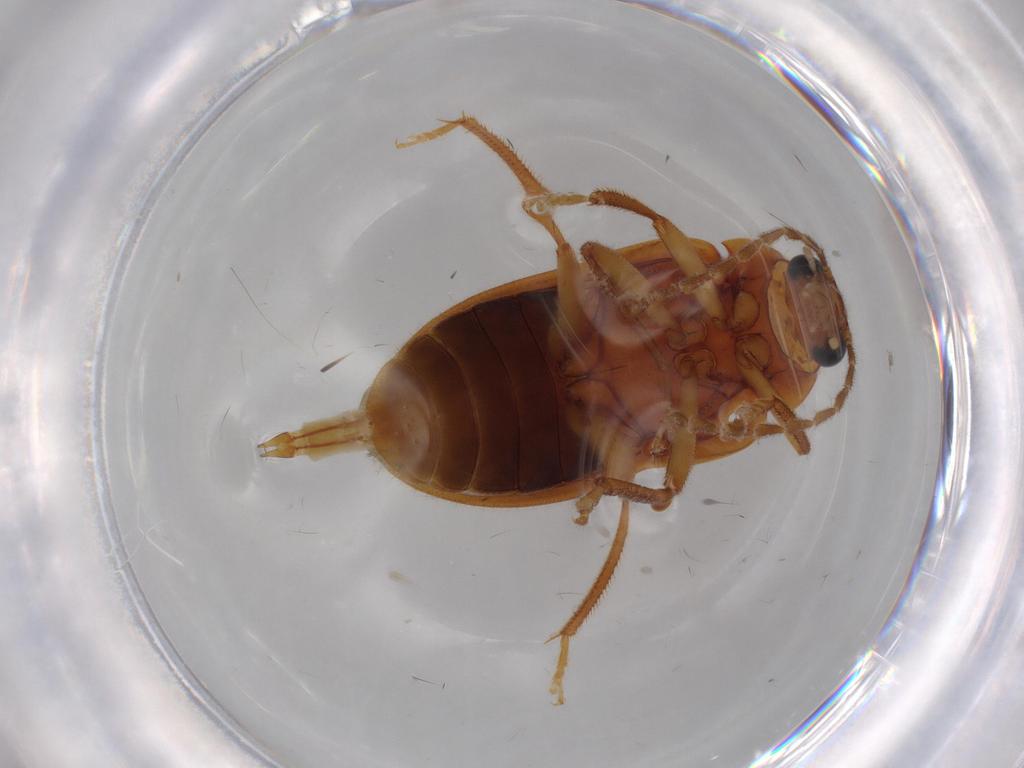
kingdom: Animalia
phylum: Arthropoda
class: Insecta
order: Coleoptera
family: Ptilodactylidae
